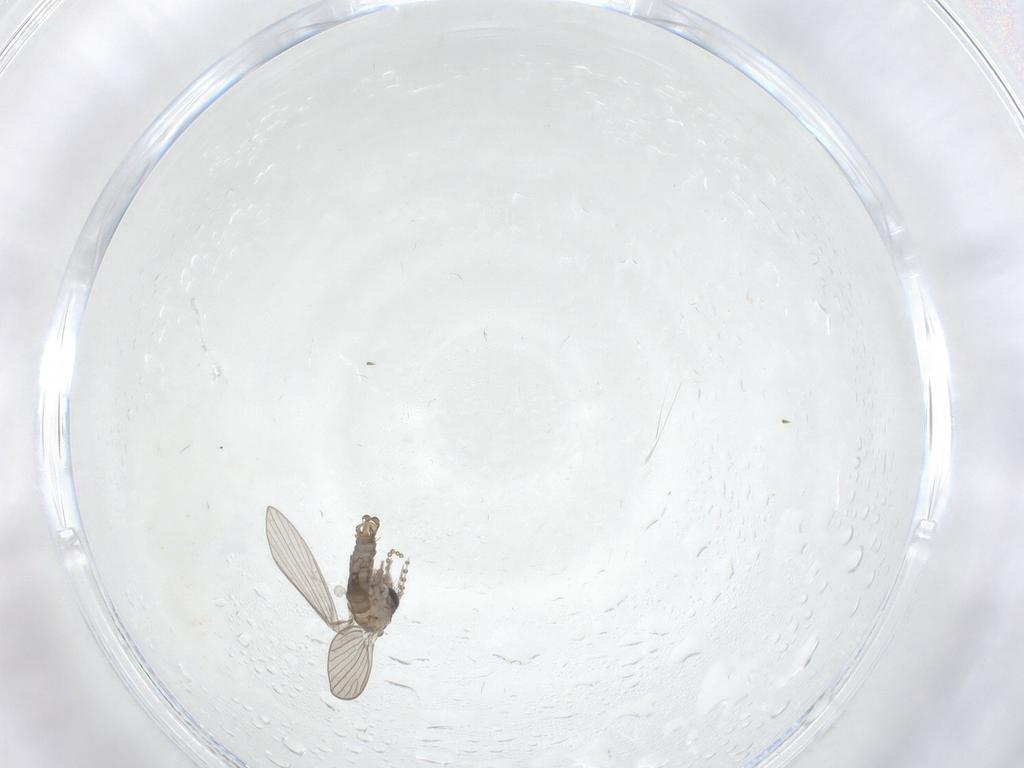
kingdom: Animalia
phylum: Arthropoda
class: Insecta
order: Diptera
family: Psychodidae
